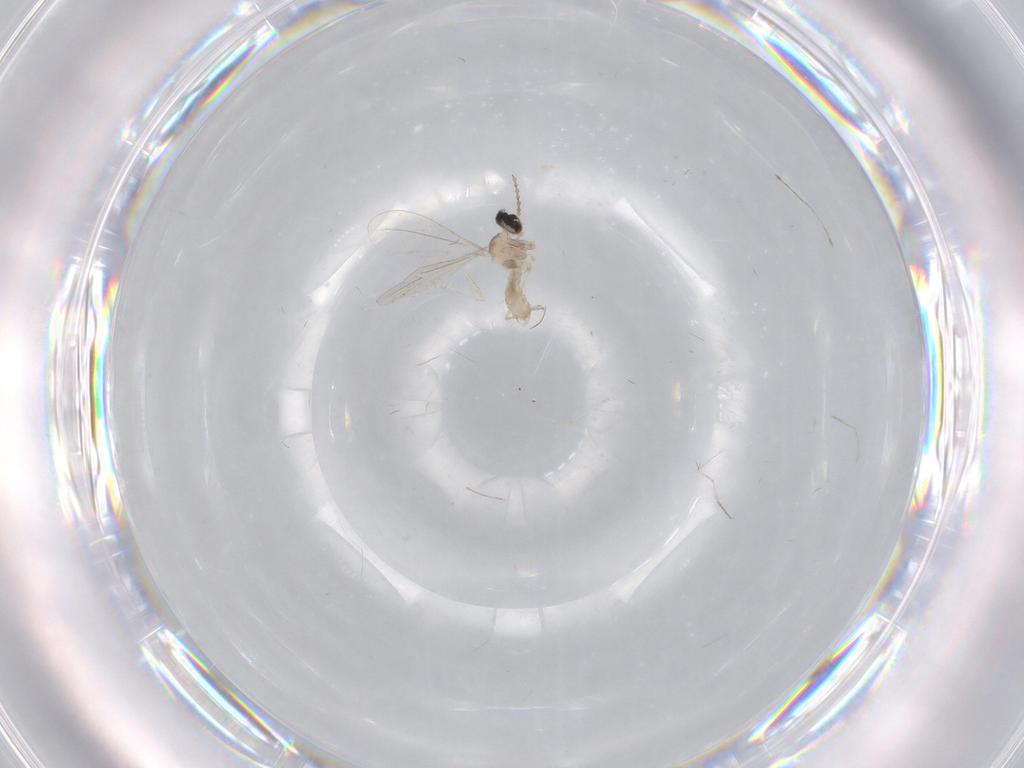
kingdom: Animalia
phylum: Arthropoda
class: Insecta
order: Diptera
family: Cecidomyiidae
